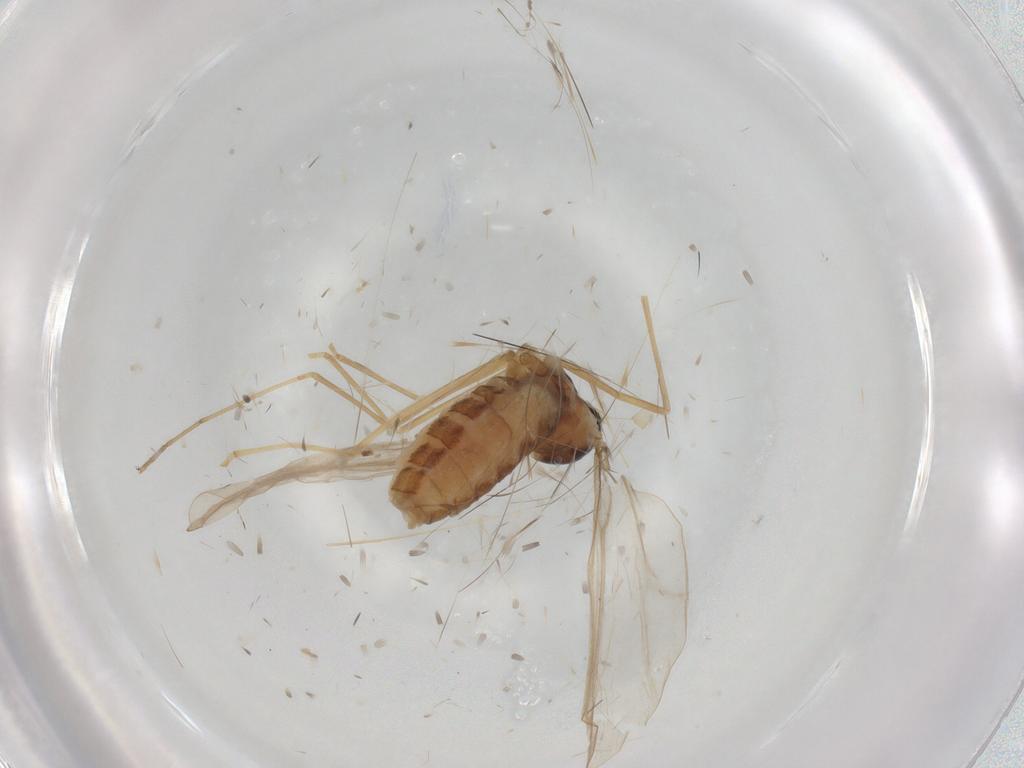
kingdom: Animalia
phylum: Arthropoda
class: Insecta
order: Diptera
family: Cecidomyiidae
